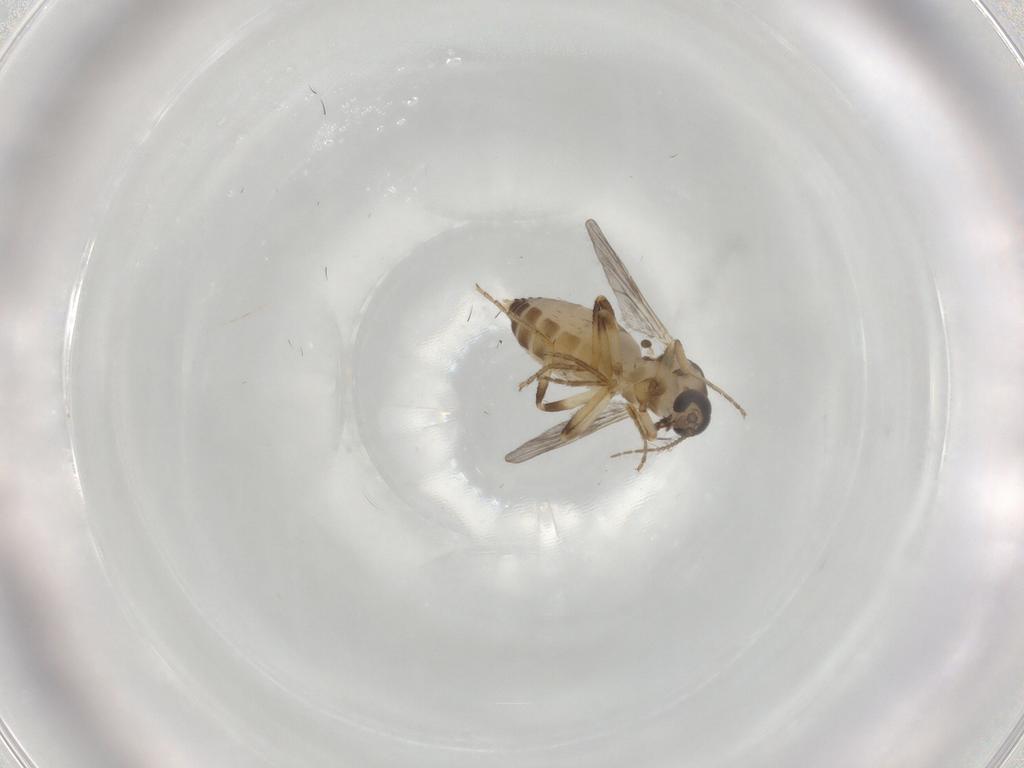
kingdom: Animalia
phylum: Arthropoda
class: Insecta
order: Diptera
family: Ceratopogonidae
